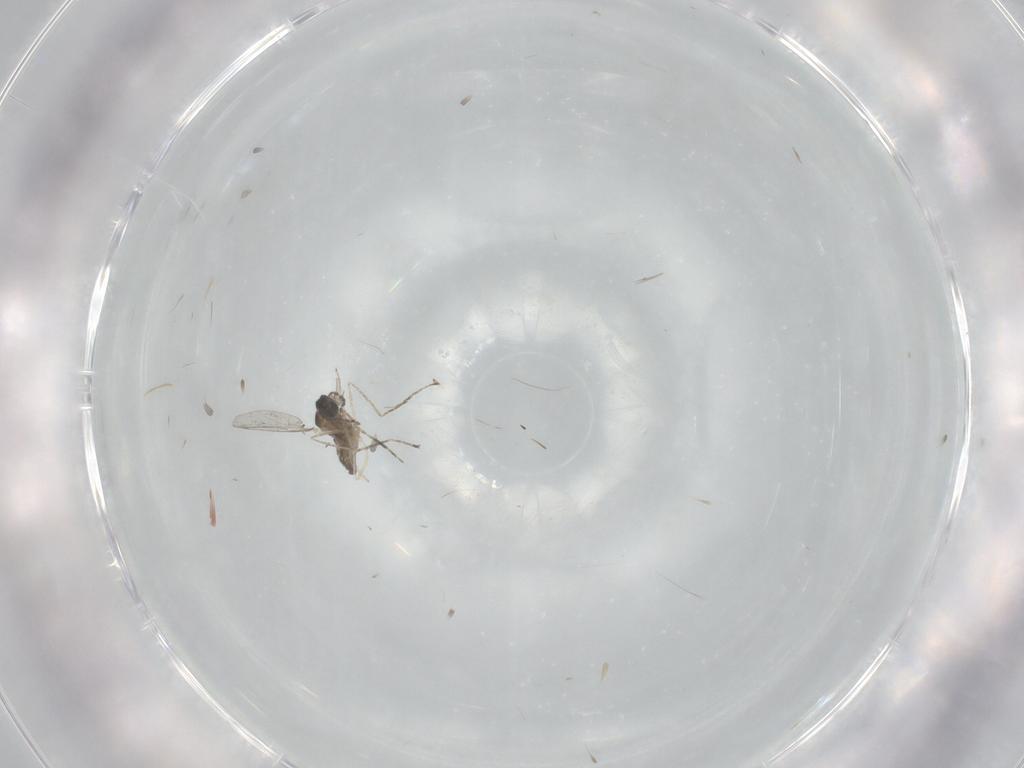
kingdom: Animalia
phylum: Arthropoda
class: Insecta
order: Diptera
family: Cecidomyiidae
